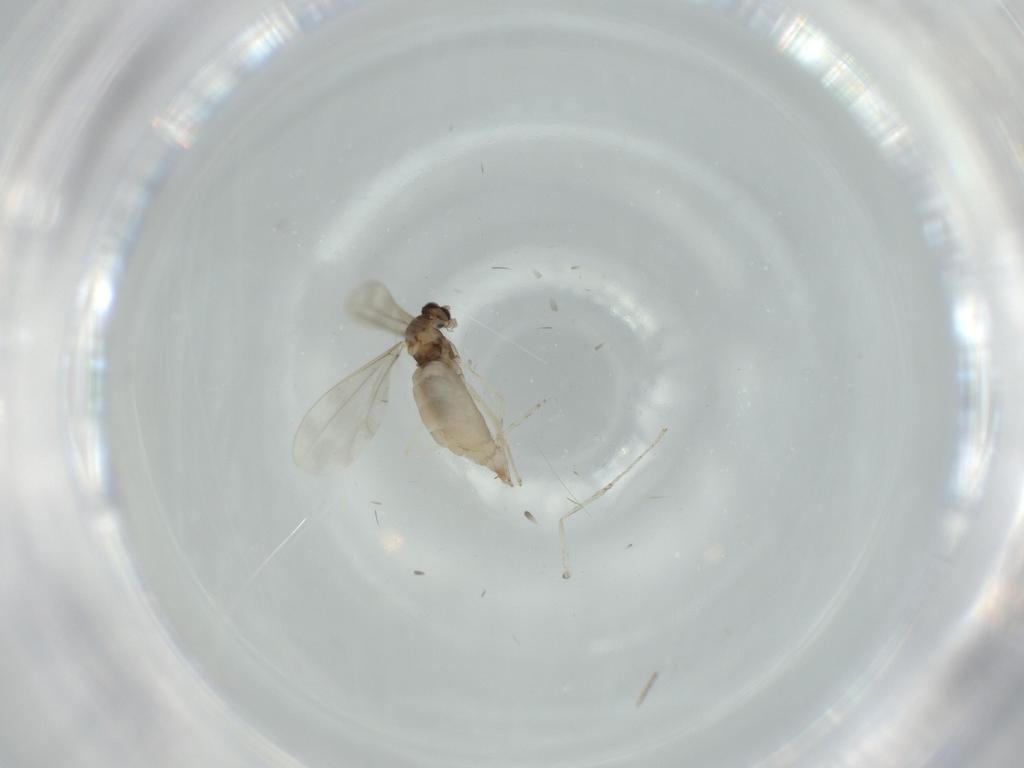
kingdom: Animalia
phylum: Arthropoda
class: Insecta
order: Diptera
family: Cecidomyiidae
